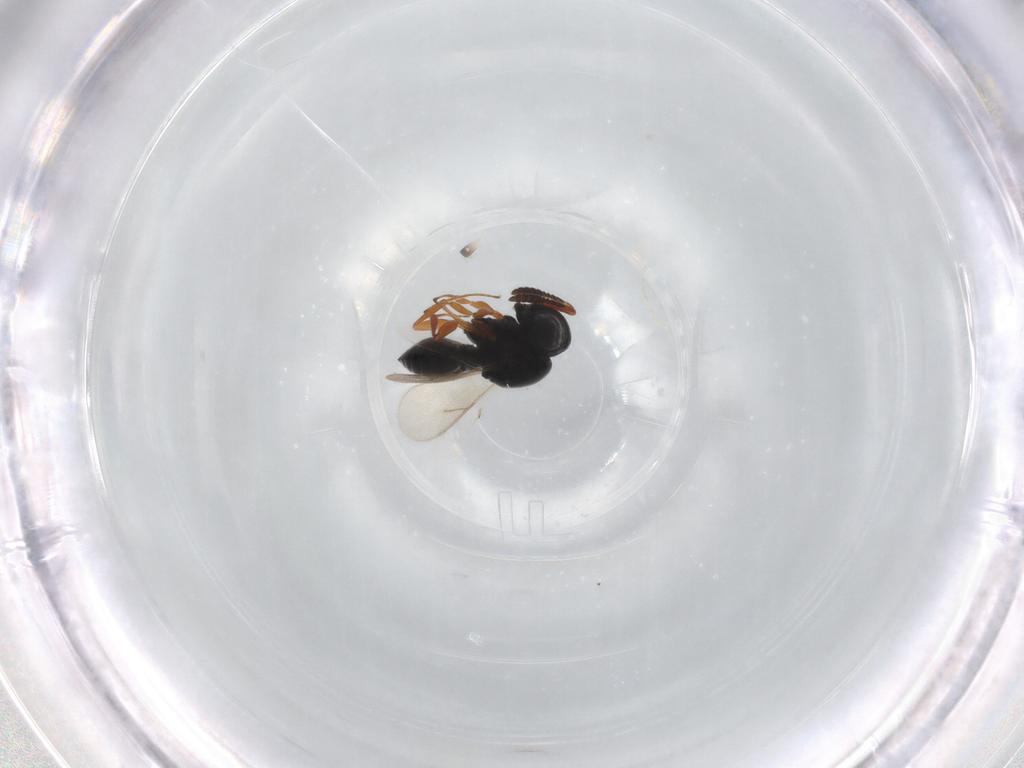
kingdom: Animalia
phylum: Arthropoda
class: Insecta
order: Hymenoptera
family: Scelionidae
